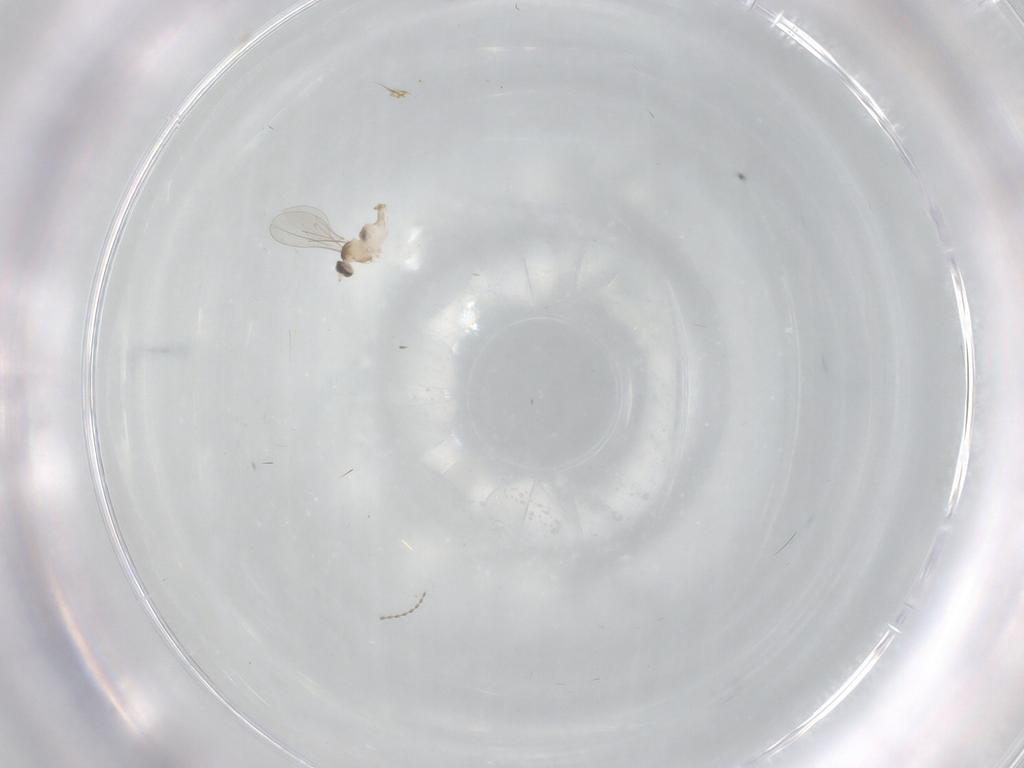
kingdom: Animalia
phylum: Arthropoda
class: Insecta
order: Diptera
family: Cecidomyiidae
